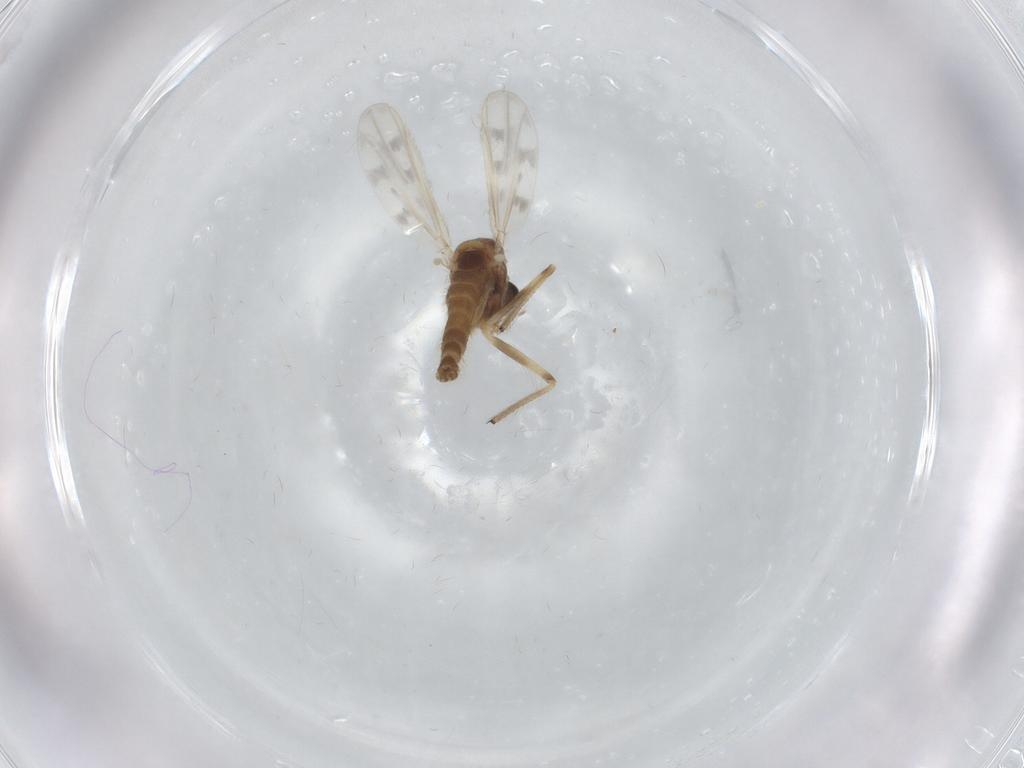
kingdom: Animalia
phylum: Arthropoda
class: Insecta
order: Diptera
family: Chironomidae
